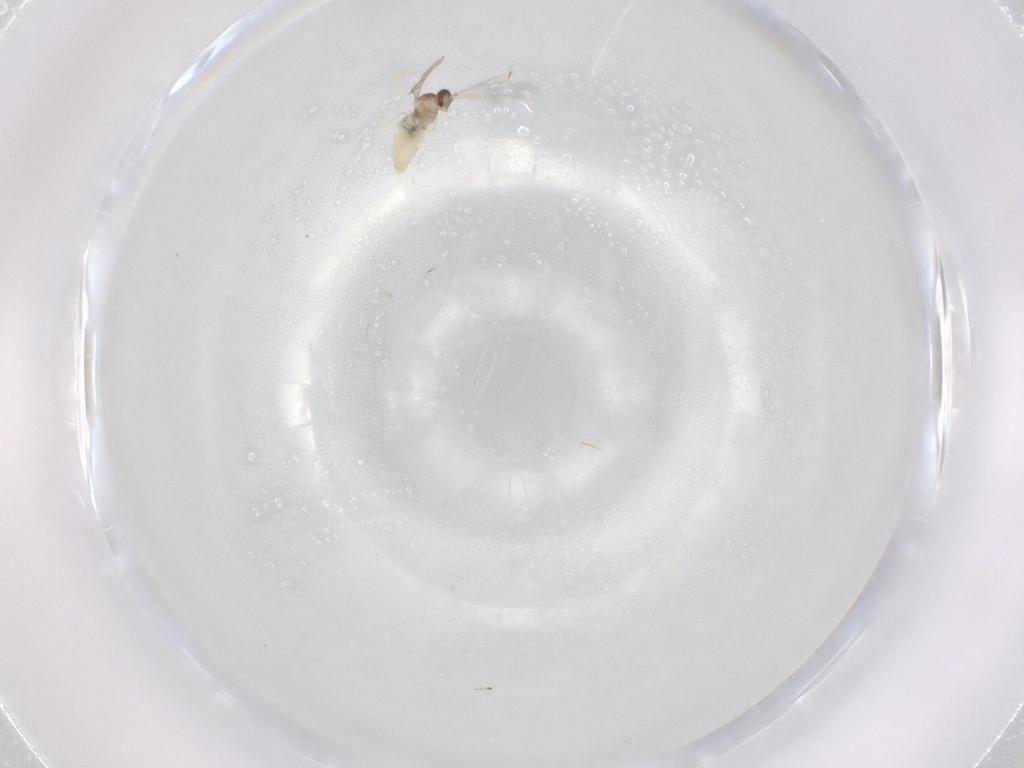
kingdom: Animalia
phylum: Arthropoda
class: Insecta
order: Diptera
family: Cecidomyiidae
